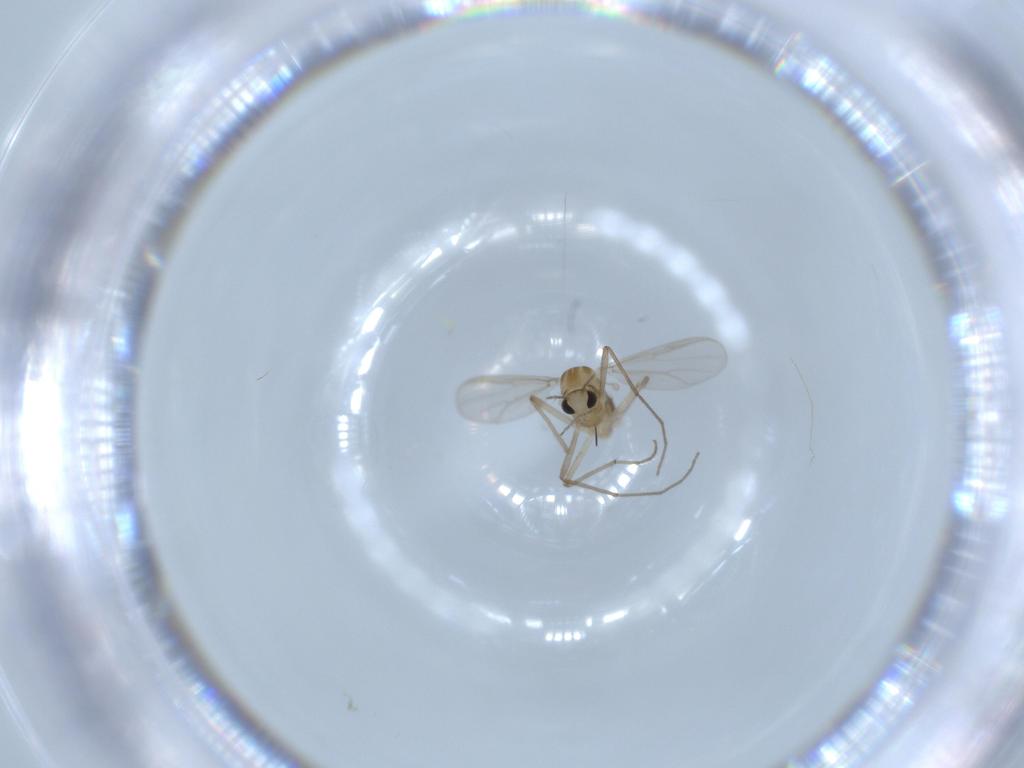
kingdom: Animalia
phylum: Arthropoda
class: Insecta
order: Diptera
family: Chironomidae
